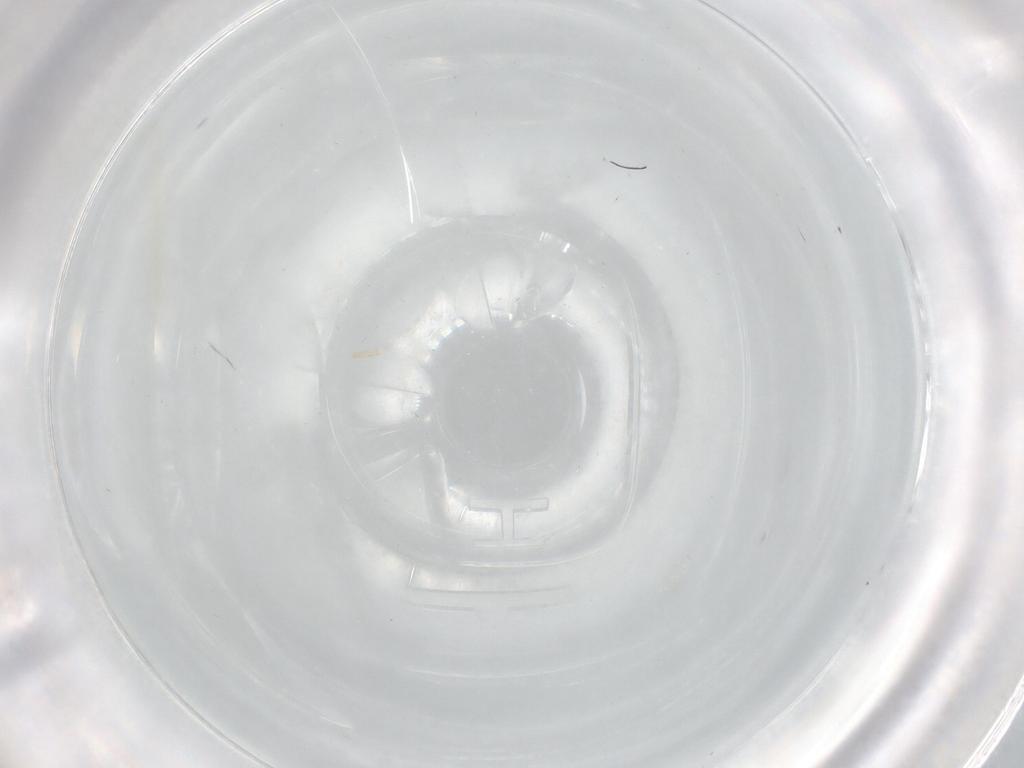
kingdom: Animalia
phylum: Arthropoda
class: Insecta
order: Diptera
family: Cecidomyiidae
